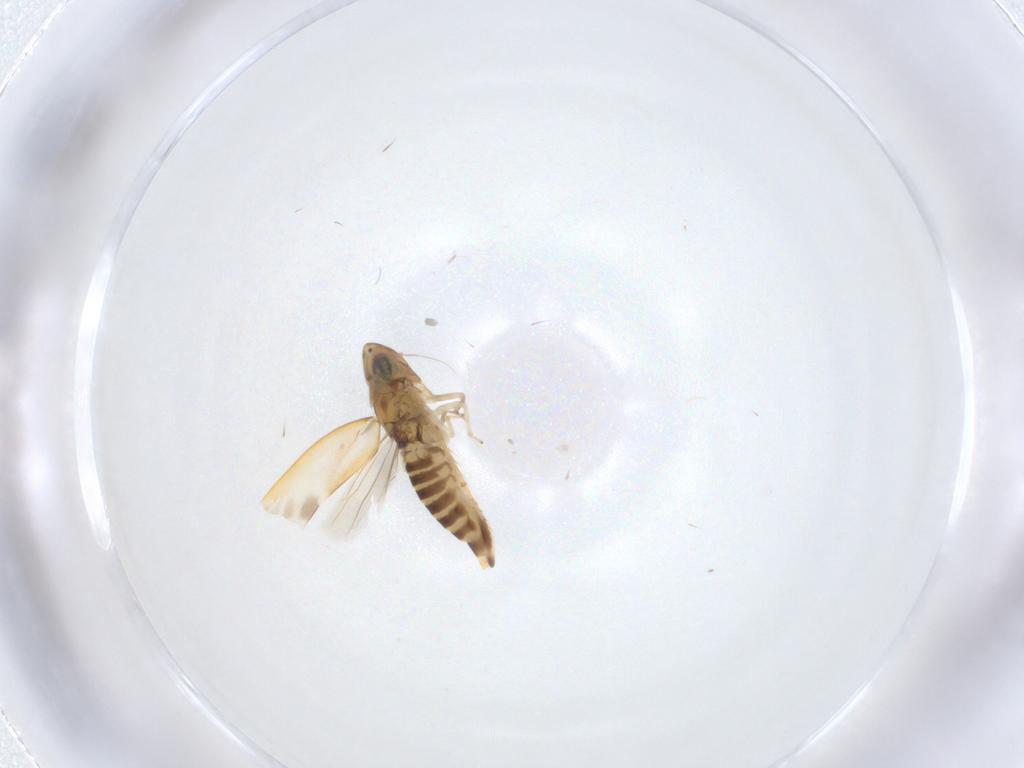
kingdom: Animalia
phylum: Arthropoda
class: Insecta
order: Hemiptera
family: Cicadellidae
